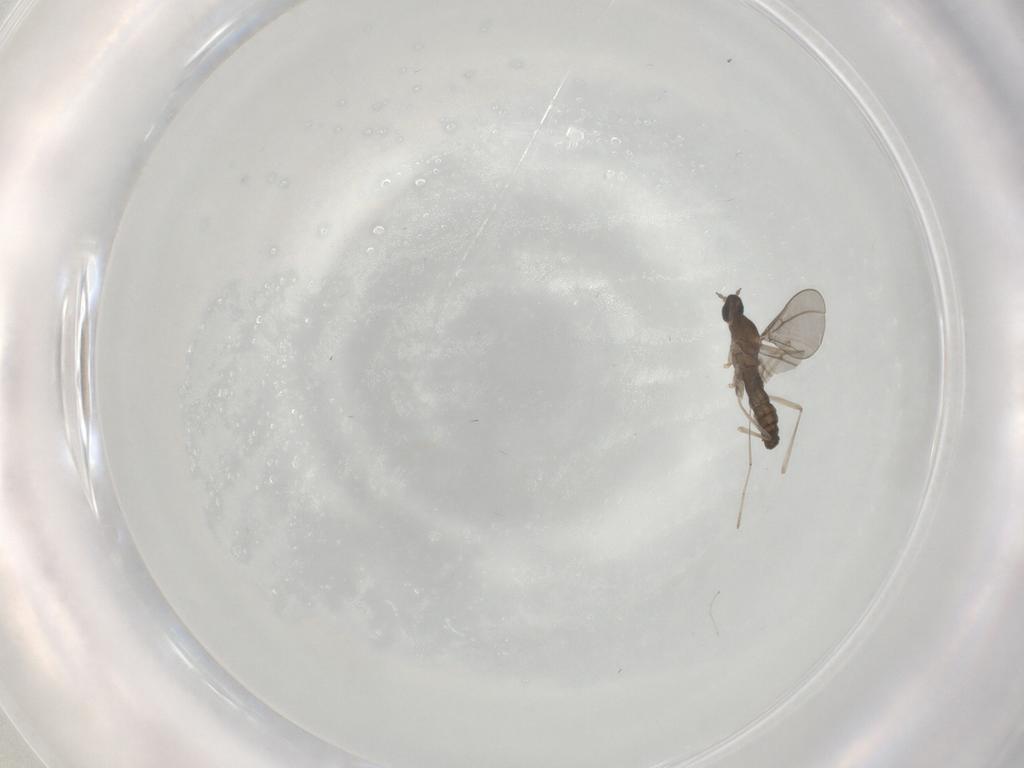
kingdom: Animalia
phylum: Arthropoda
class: Insecta
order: Diptera
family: Cecidomyiidae
